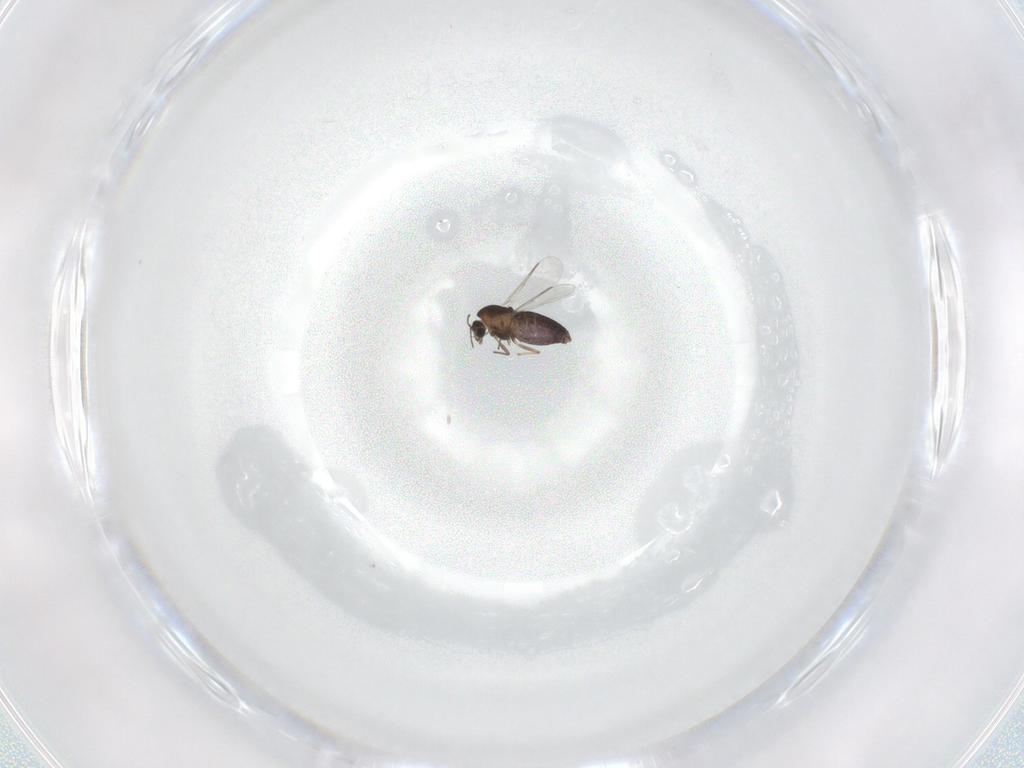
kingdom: Animalia
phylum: Arthropoda
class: Insecta
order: Diptera
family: Chironomidae
